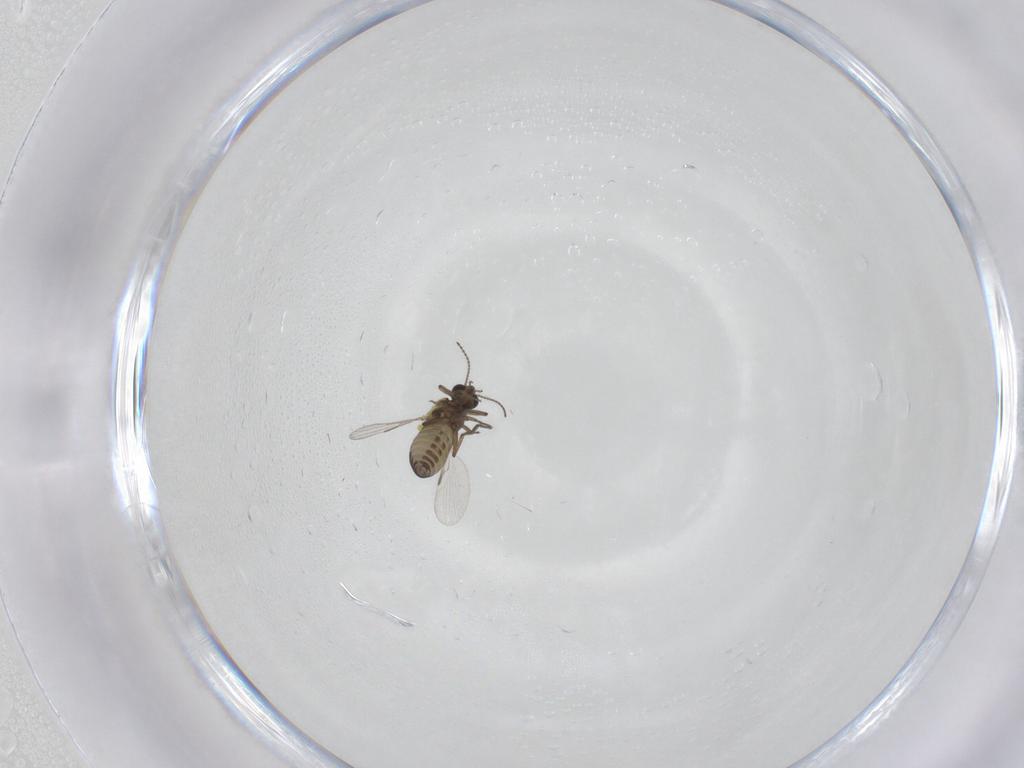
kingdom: Animalia
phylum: Arthropoda
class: Insecta
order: Diptera
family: Ceratopogonidae
